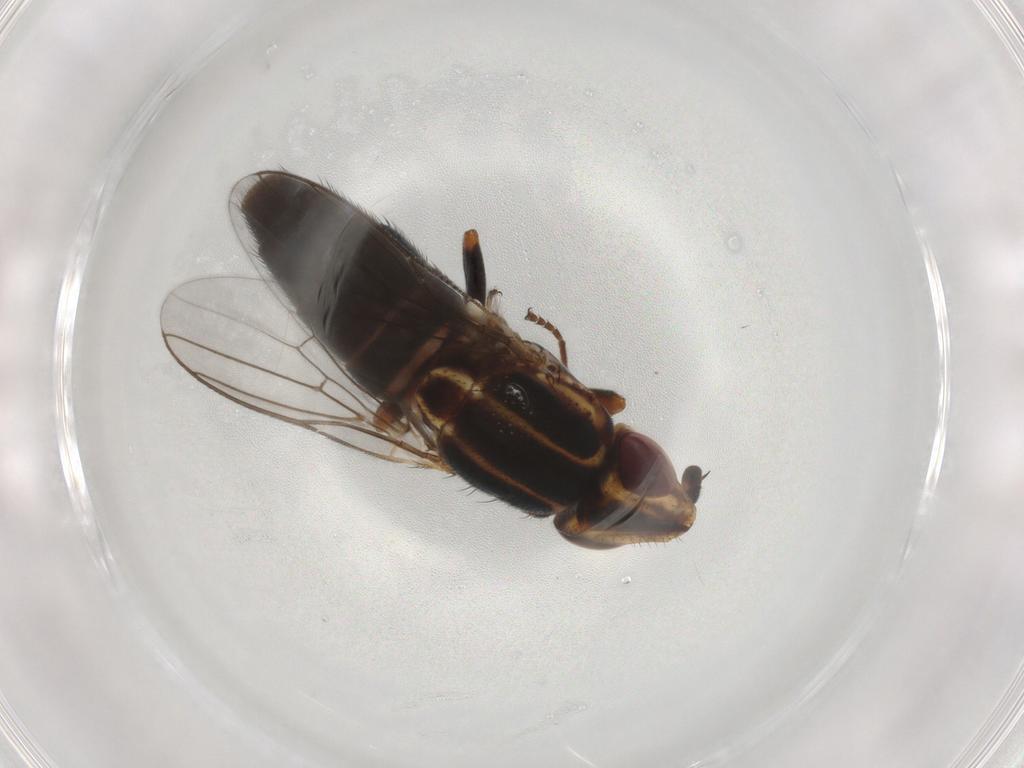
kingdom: Animalia
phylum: Arthropoda
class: Insecta
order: Diptera
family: Chloropidae
